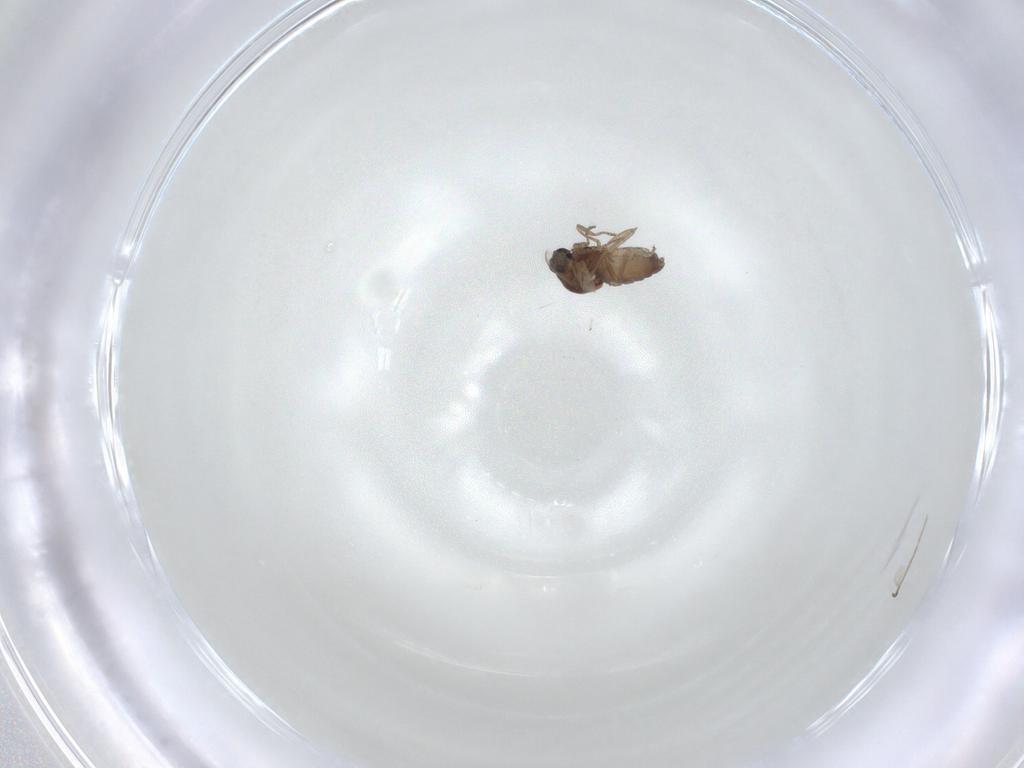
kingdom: Animalia
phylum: Arthropoda
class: Insecta
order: Diptera
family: Ceratopogonidae
